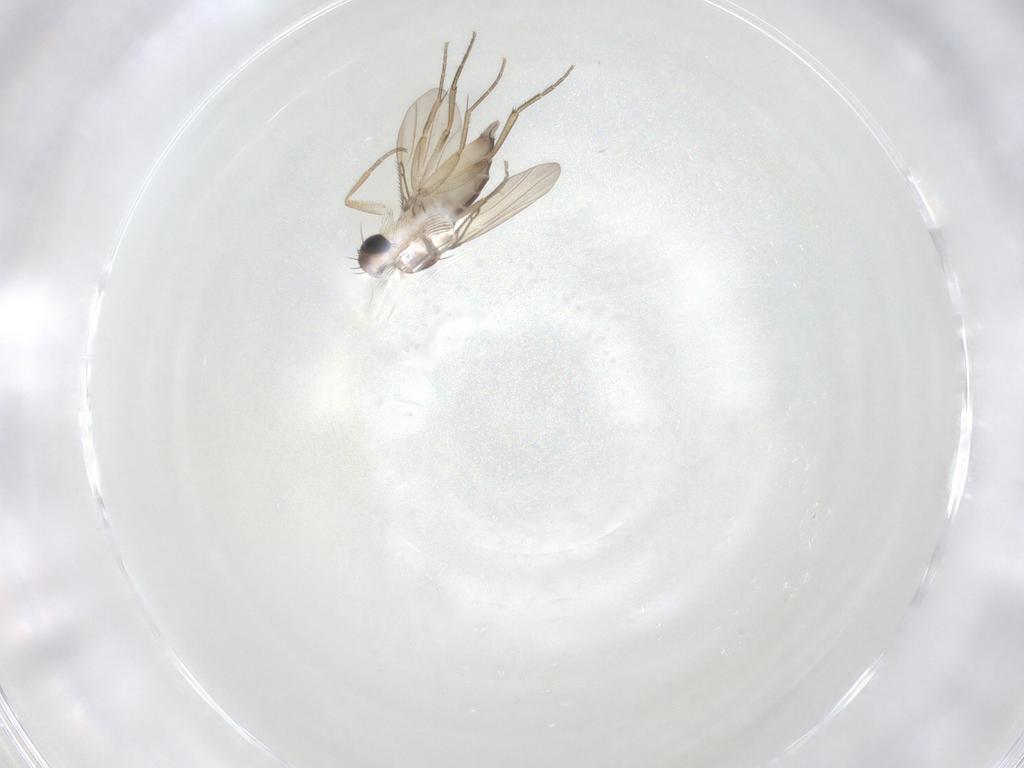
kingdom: Animalia
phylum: Arthropoda
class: Insecta
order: Diptera
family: Phoridae
